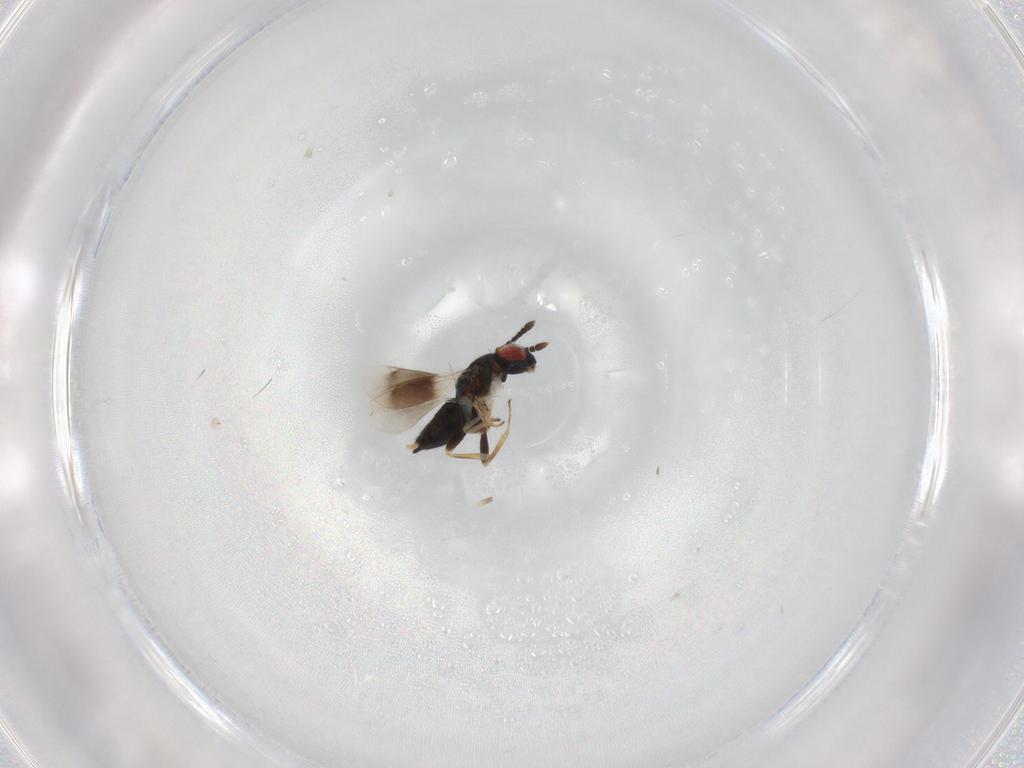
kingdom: Animalia
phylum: Arthropoda
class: Insecta
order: Hymenoptera
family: Eulophidae
